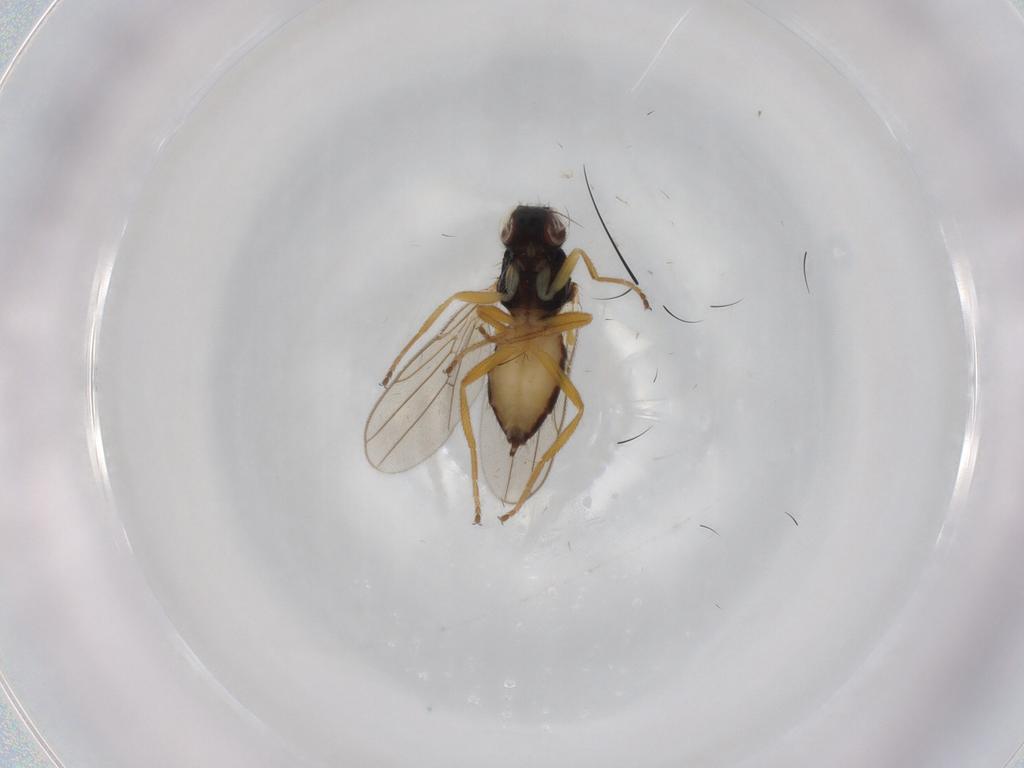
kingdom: Animalia
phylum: Arthropoda
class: Insecta
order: Diptera
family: Chloropidae
